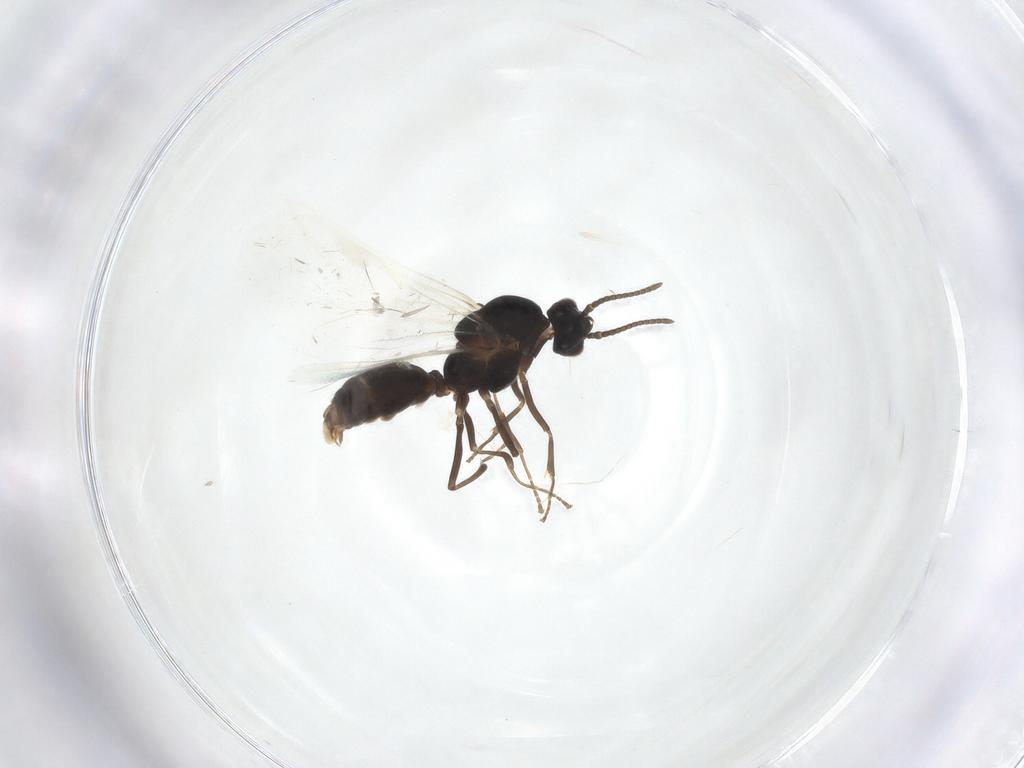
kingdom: Animalia
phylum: Arthropoda
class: Insecta
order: Hymenoptera
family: Formicidae
